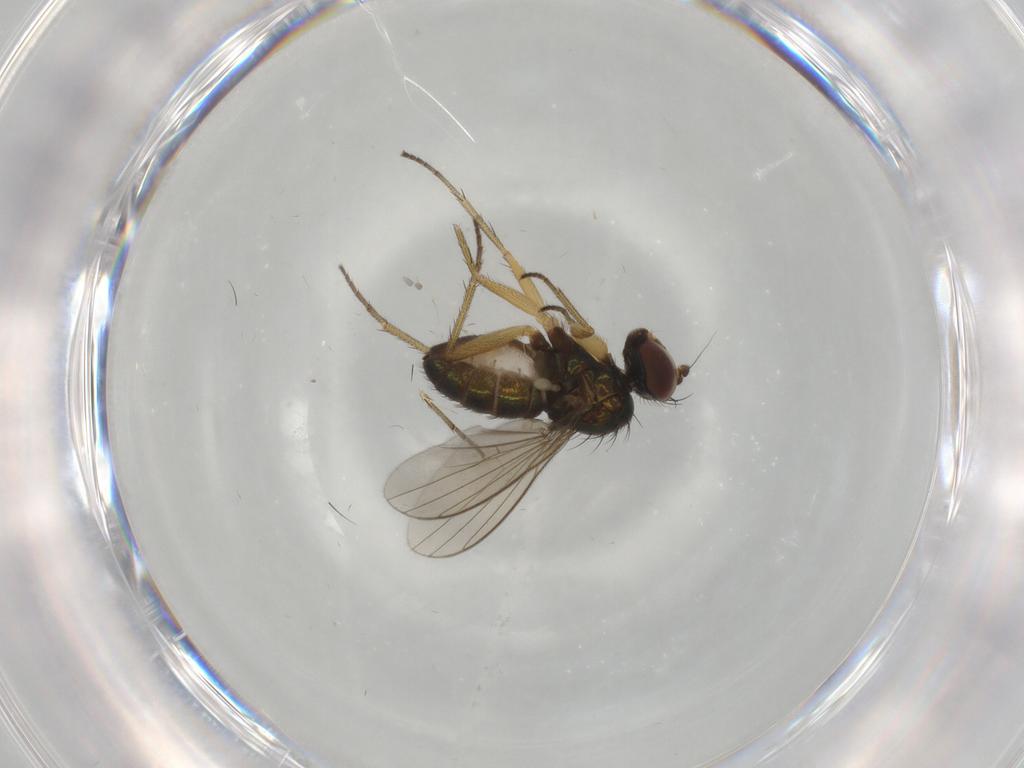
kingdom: Animalia
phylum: Arthropoda
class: Insecta
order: Diptera
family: Dolichopodidae
